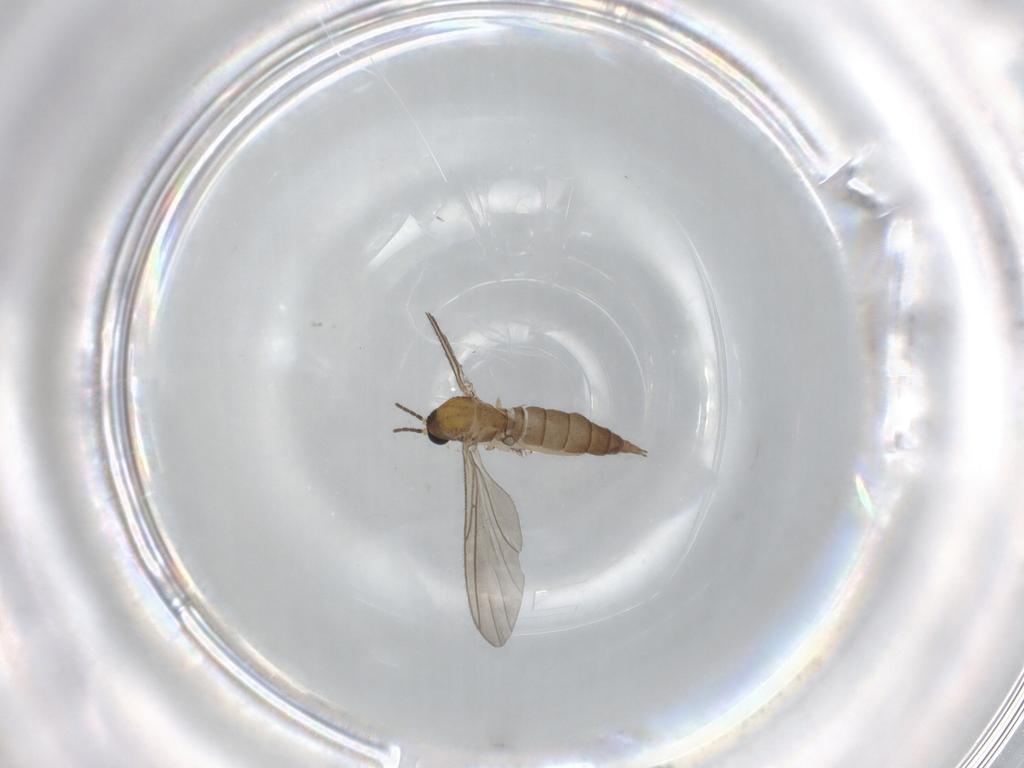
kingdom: Animalia
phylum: Arthropoda
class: Insecta
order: Diptera
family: Sciaridae
